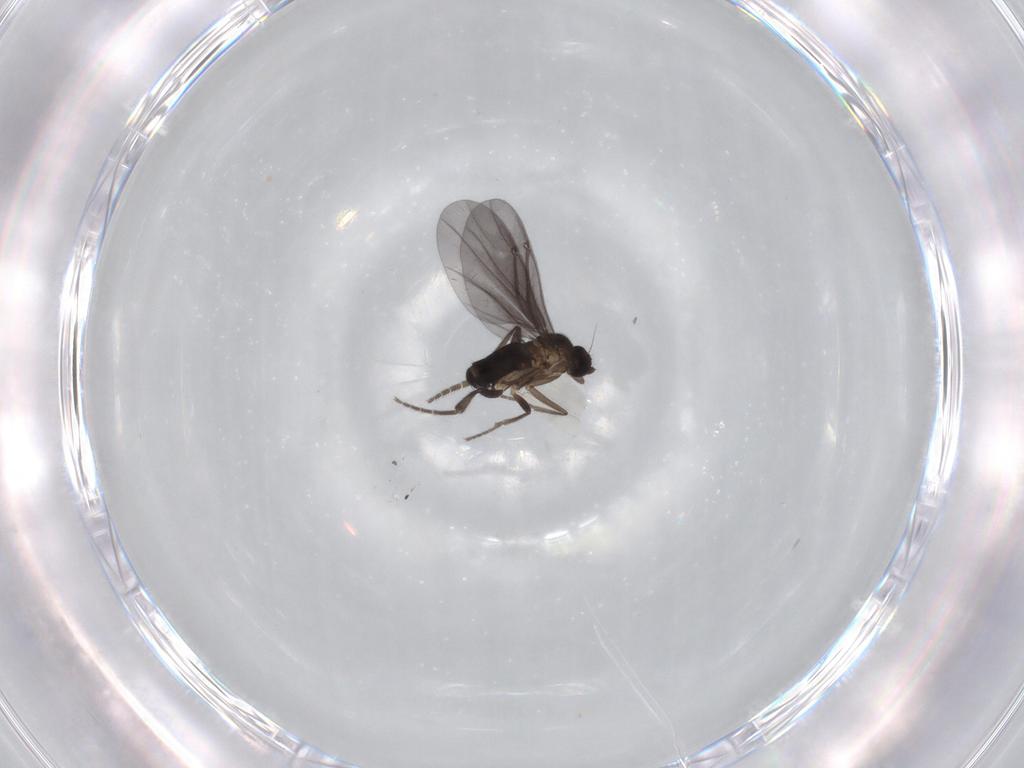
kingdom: Animalia
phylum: Arthropoda
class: Insecta
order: Diptera
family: Phoridae
